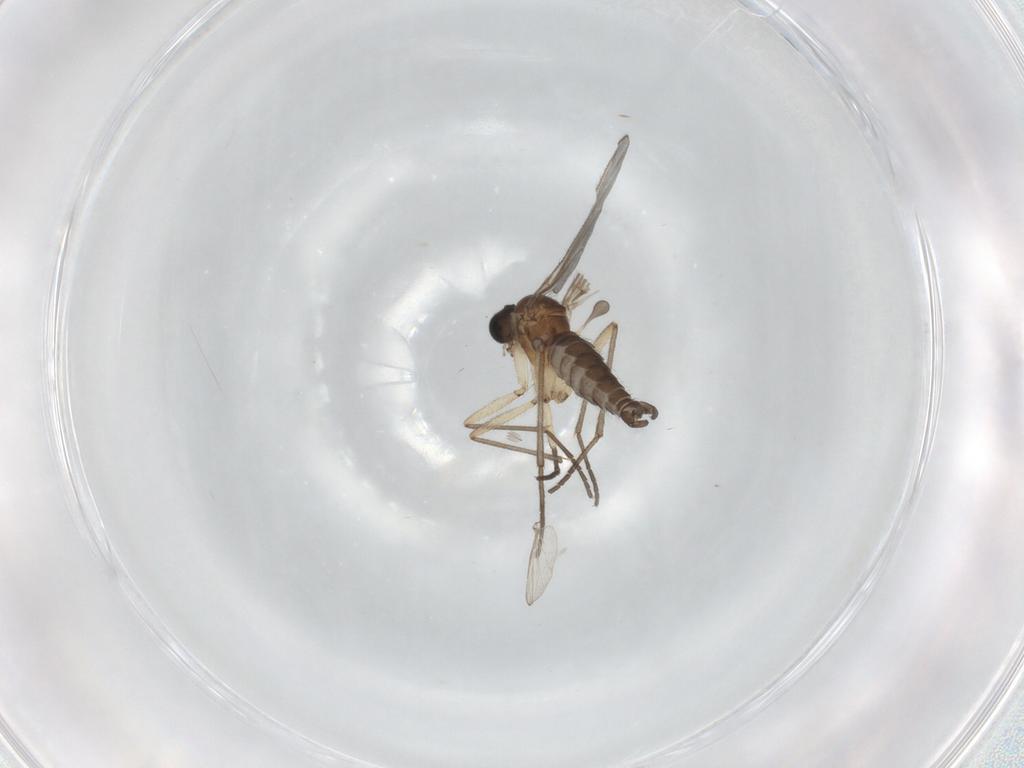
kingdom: Animalia
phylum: Arthropoda
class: Insecta
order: Diptera
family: Sciaridae
